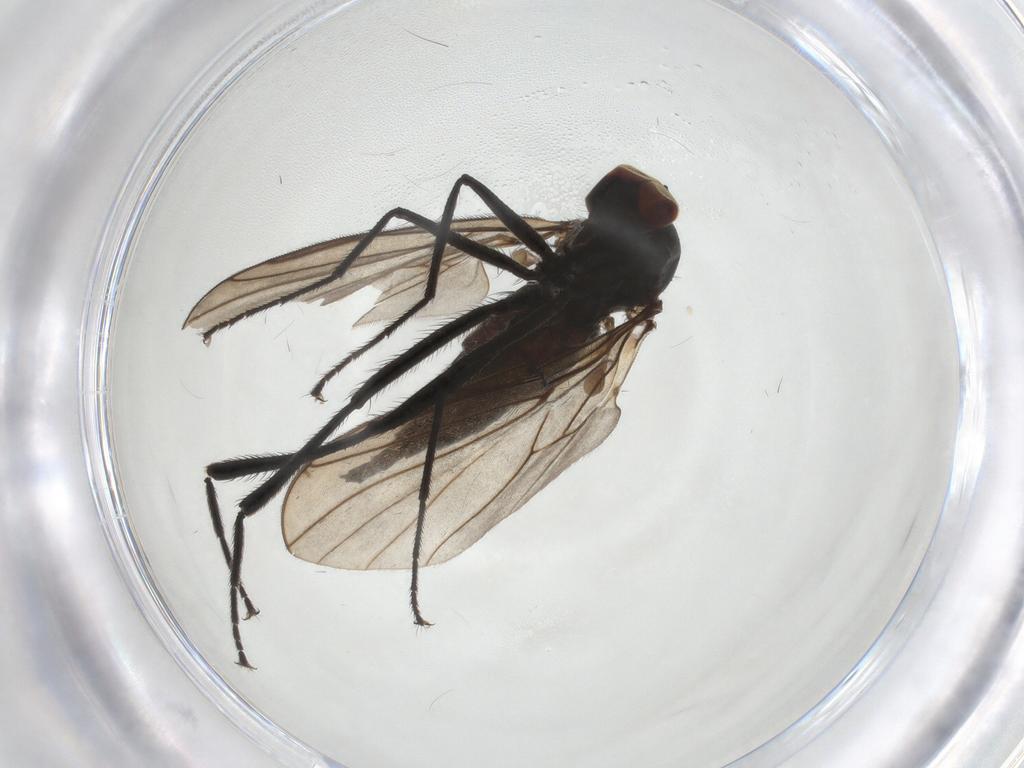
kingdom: Animalia
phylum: Arthropoda
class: Insecta
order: Diptera
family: Hybotidae
